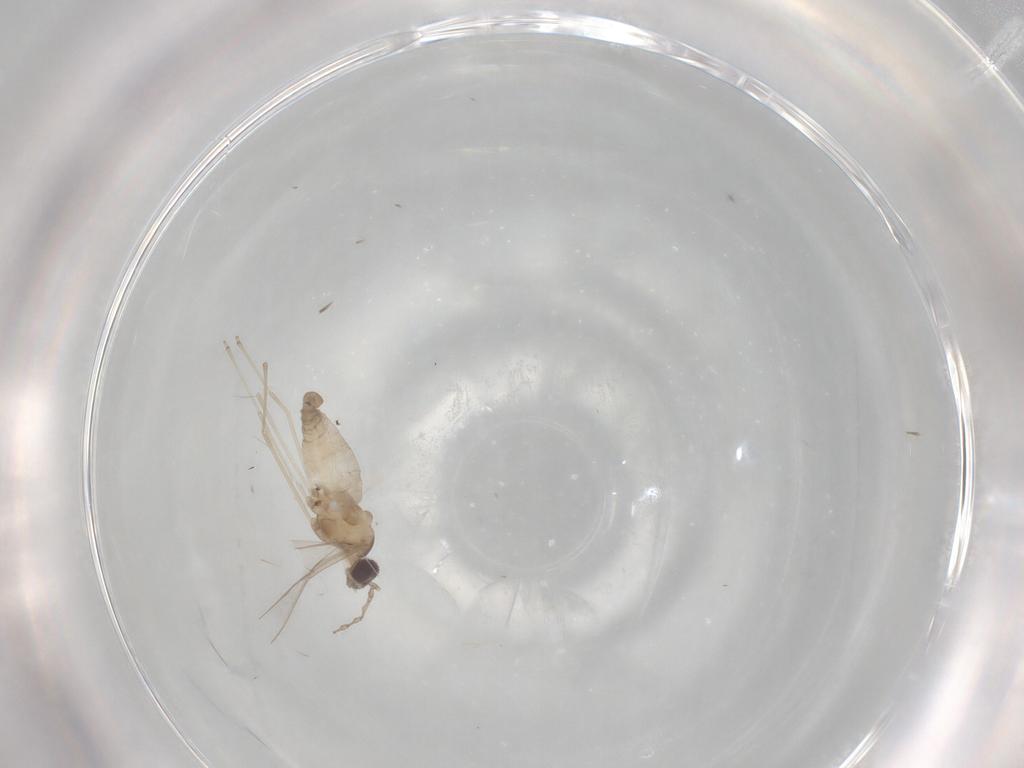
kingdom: Animalia
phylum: Arthropoda
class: Insecta
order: Diptera
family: Cecidomyiidae
